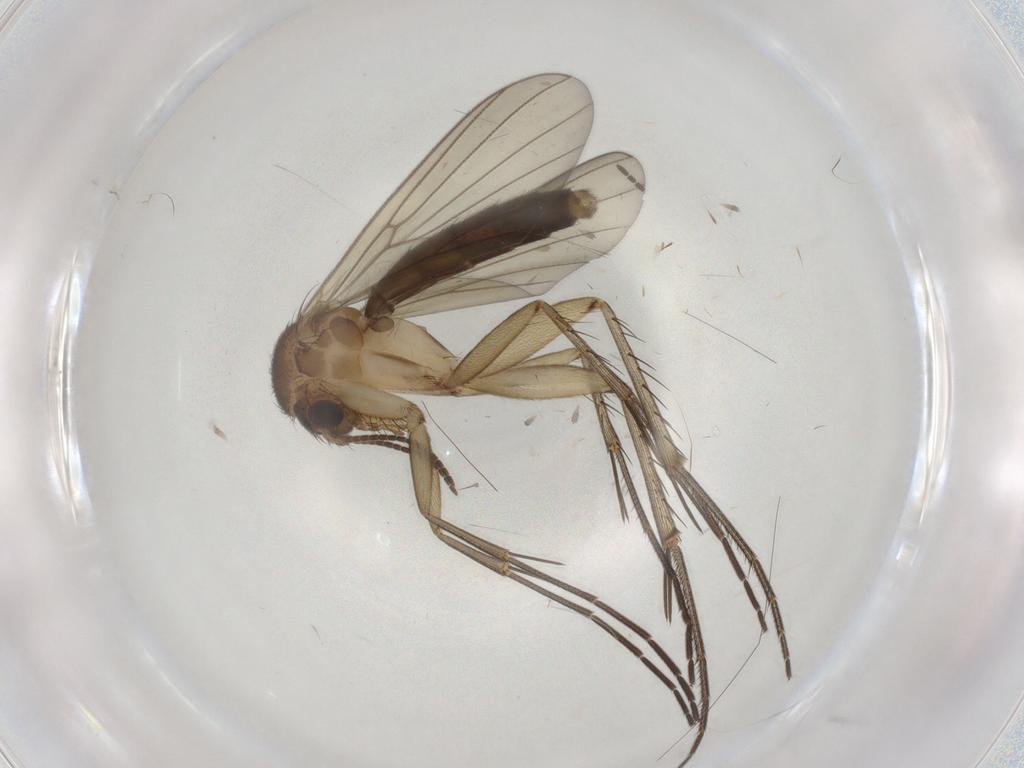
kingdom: Animalia
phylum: Arthropoda
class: Insecta
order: Diptera
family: Mycetophilidae
